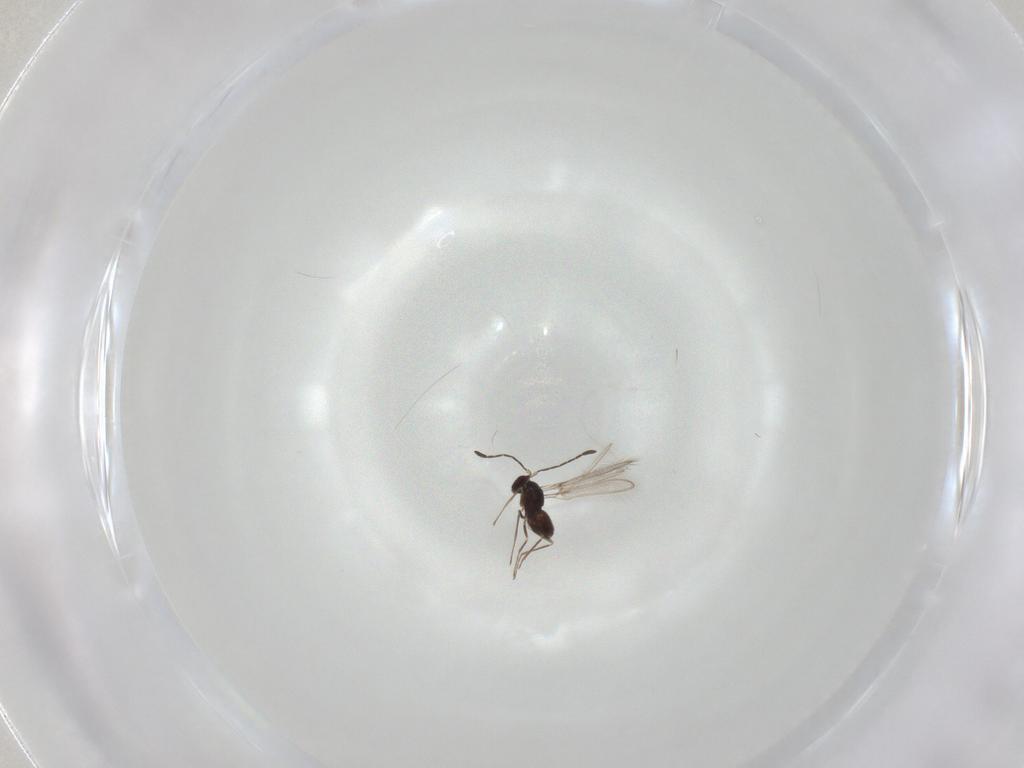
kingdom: Animalia
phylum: Arthropoda
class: Insecta
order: Hymenoptera
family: Mymaridae
